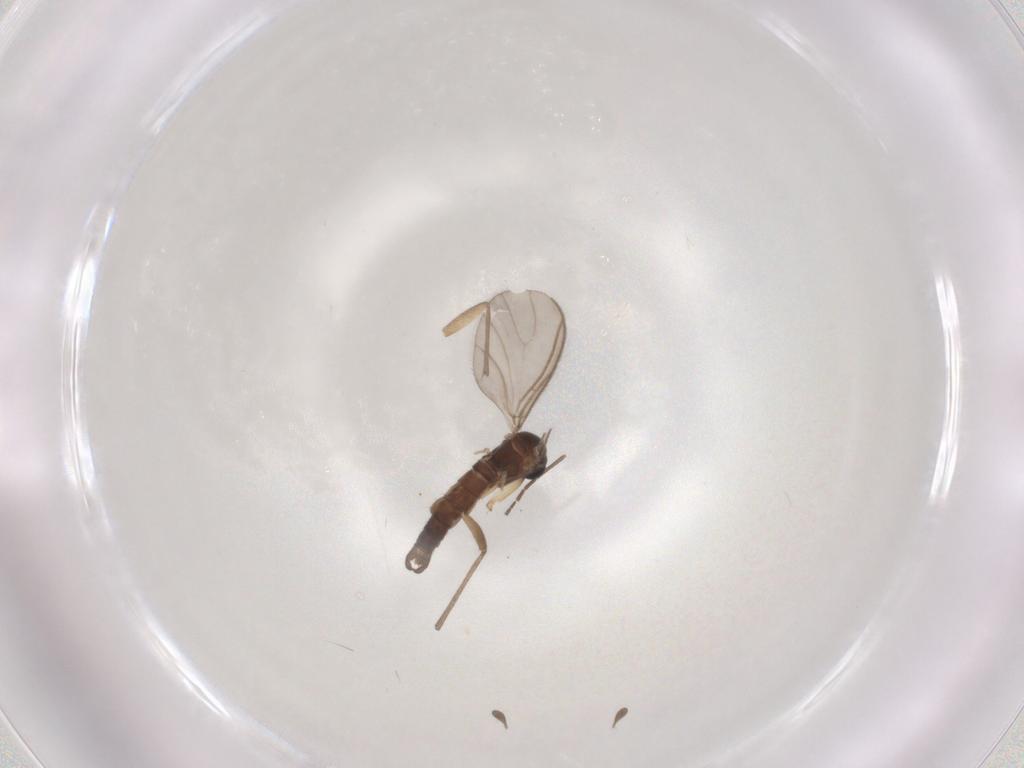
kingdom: Animalia
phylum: Arthropoda
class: Insecta
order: Diptera
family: Sciaridae
